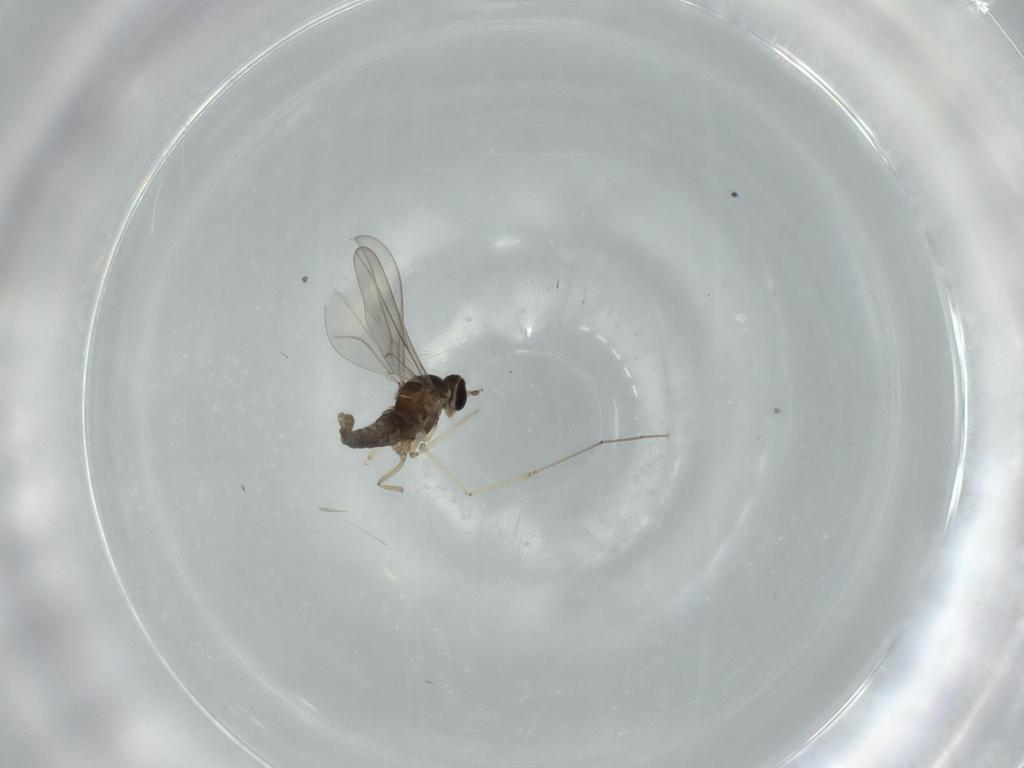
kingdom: Animalia
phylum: Arthropoda
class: Insecta
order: Diptera
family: Cecidomyiidae
